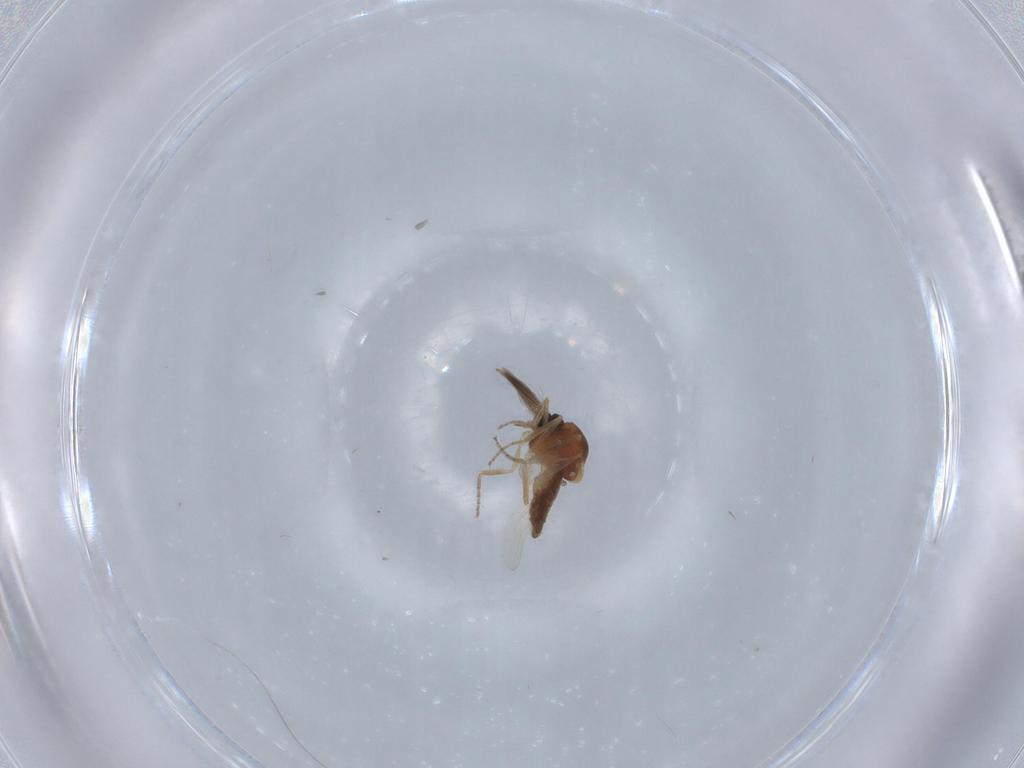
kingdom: Animalia
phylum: Arthropoda
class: Insecta
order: Diptera
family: Ceratopogonidae
